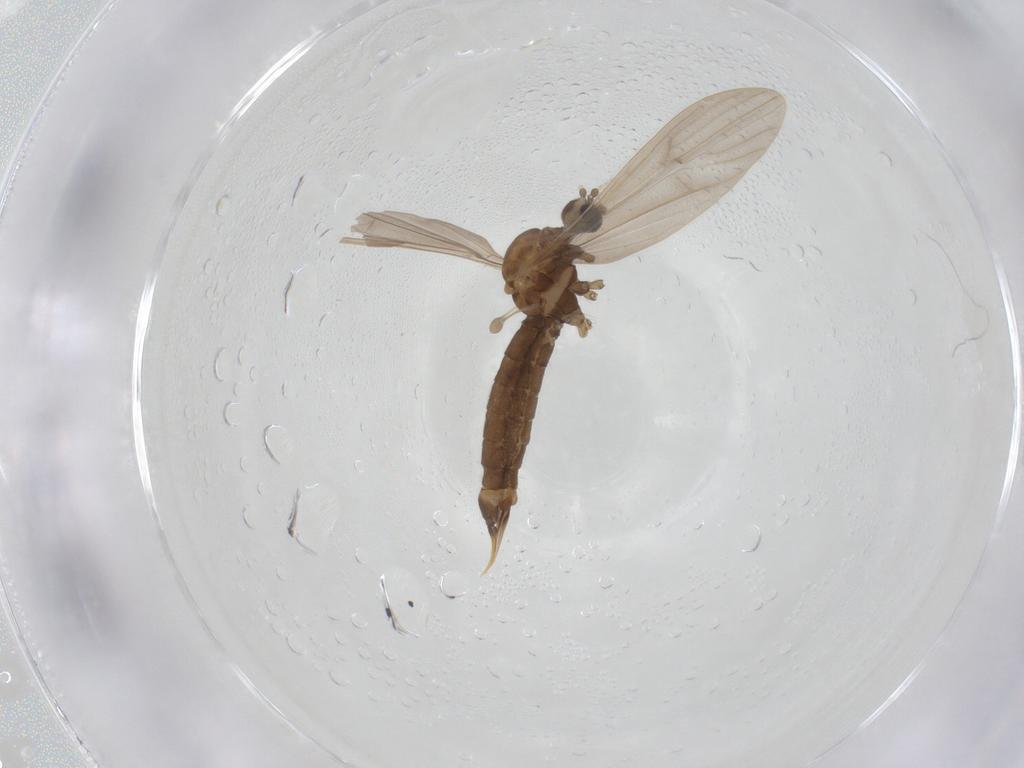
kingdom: Animalia
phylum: Arthropoda
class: Insecta
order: Diptera
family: Limoniidae
